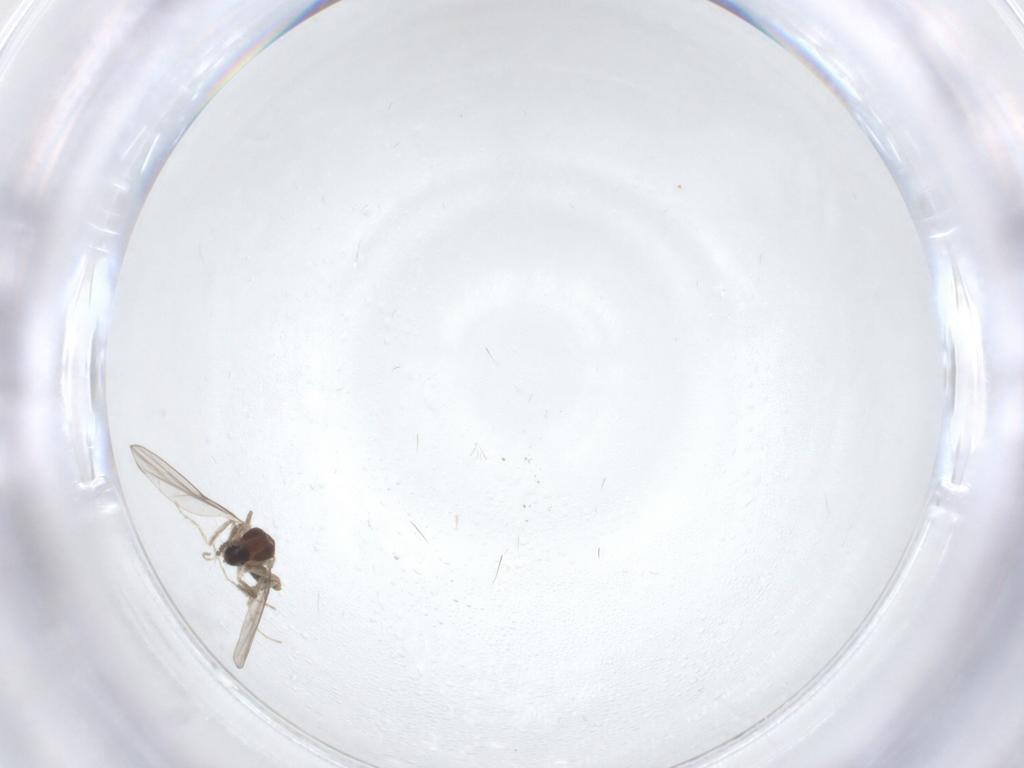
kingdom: Animalia
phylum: Arthropoda
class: Insecta
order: Diptera
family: Cecidomyiidae
